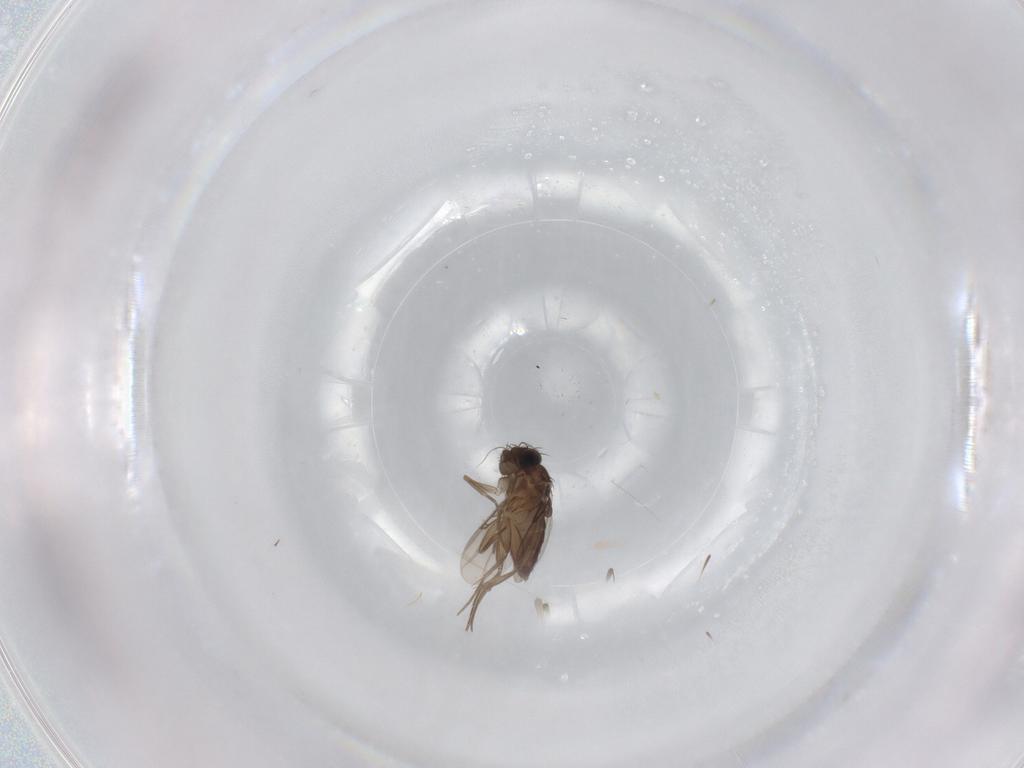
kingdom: Animalia
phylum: Arthropoda
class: Insecta
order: Diptera
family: Phoridae
